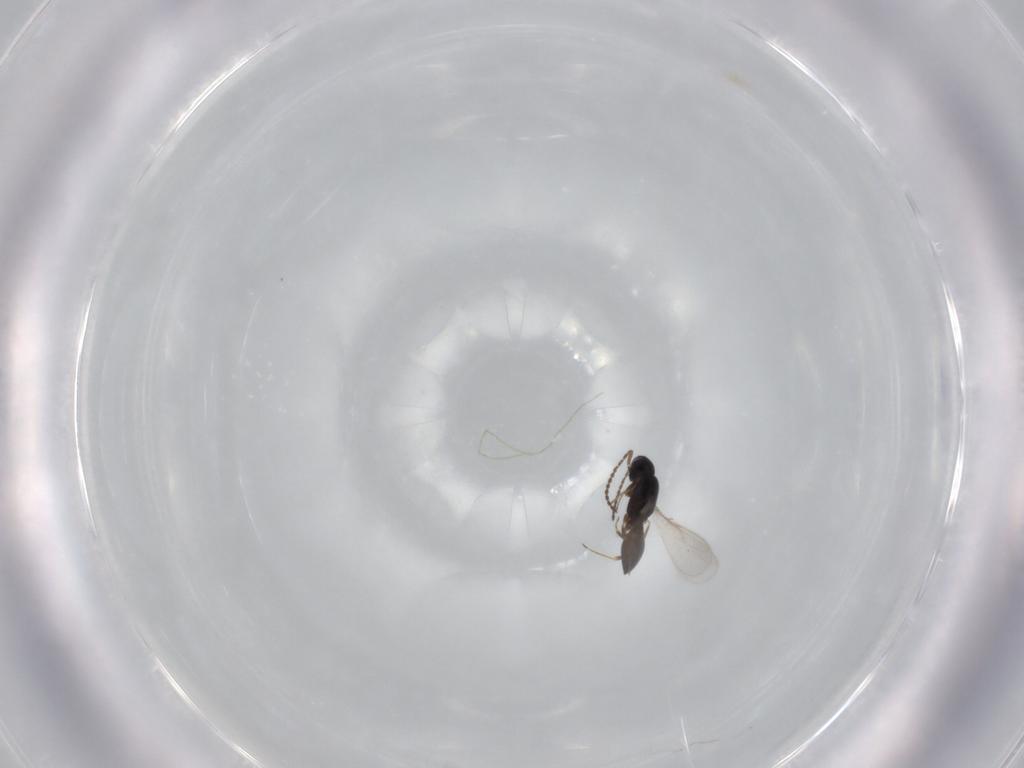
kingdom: Animalia
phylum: Arthropoda
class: Insecta
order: Hymenoptera
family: Scelionidae
